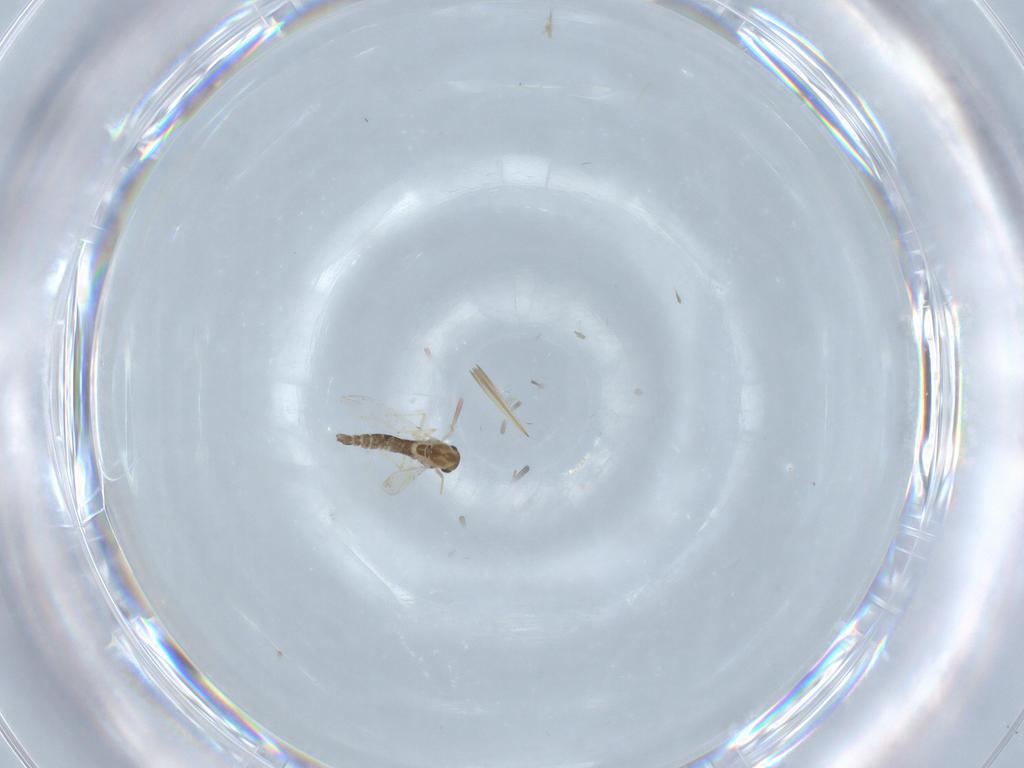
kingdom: Animalia
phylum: Arthropoda
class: Insecta
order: Diptera
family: Chironomidae
